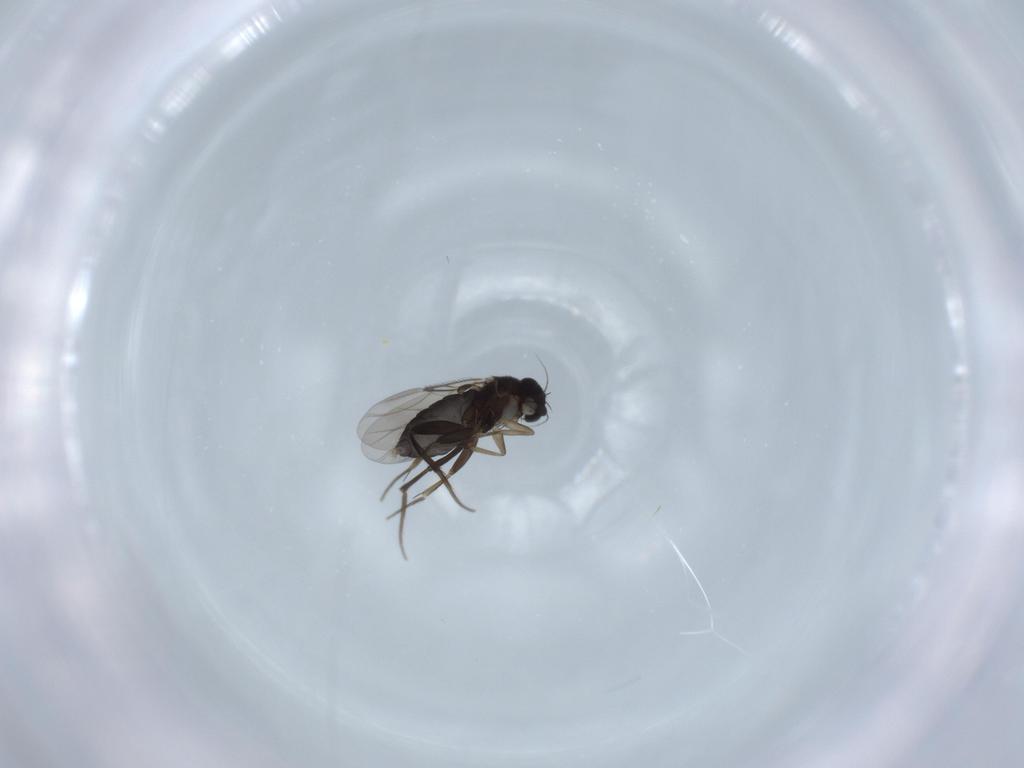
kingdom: Animalia
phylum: Arthropoda
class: Insecta
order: Diptera
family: Phoridae
